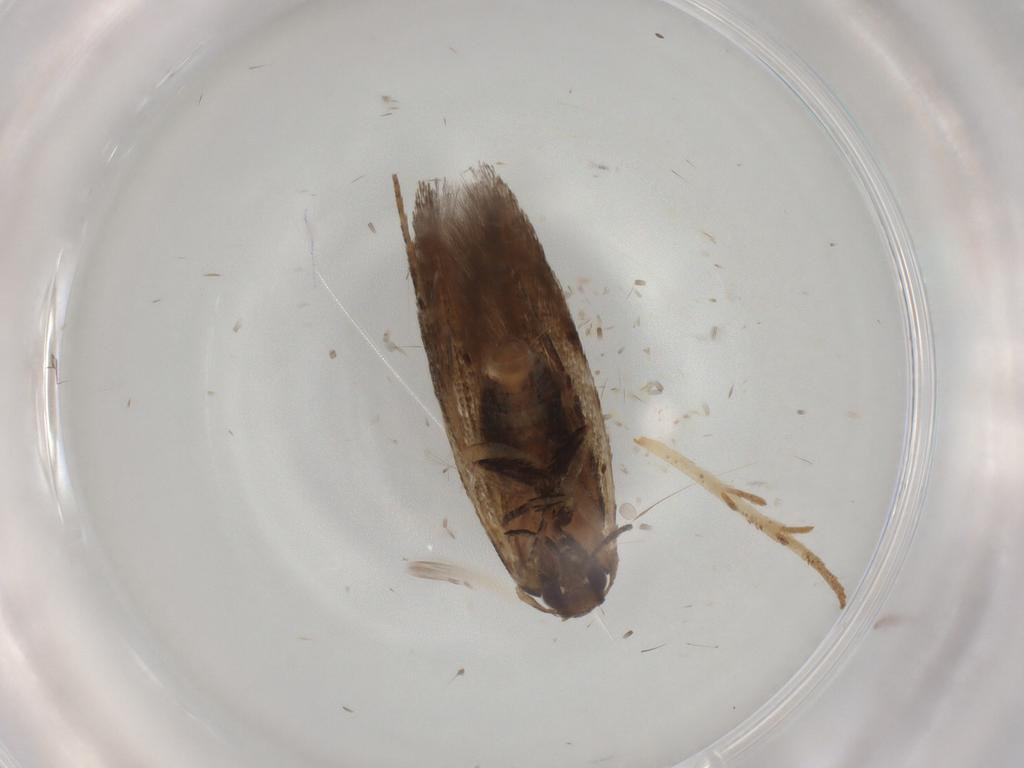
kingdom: Animalia
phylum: Arthropoda
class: Insecta
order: Lepidoptera
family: Cosmopterigidae
